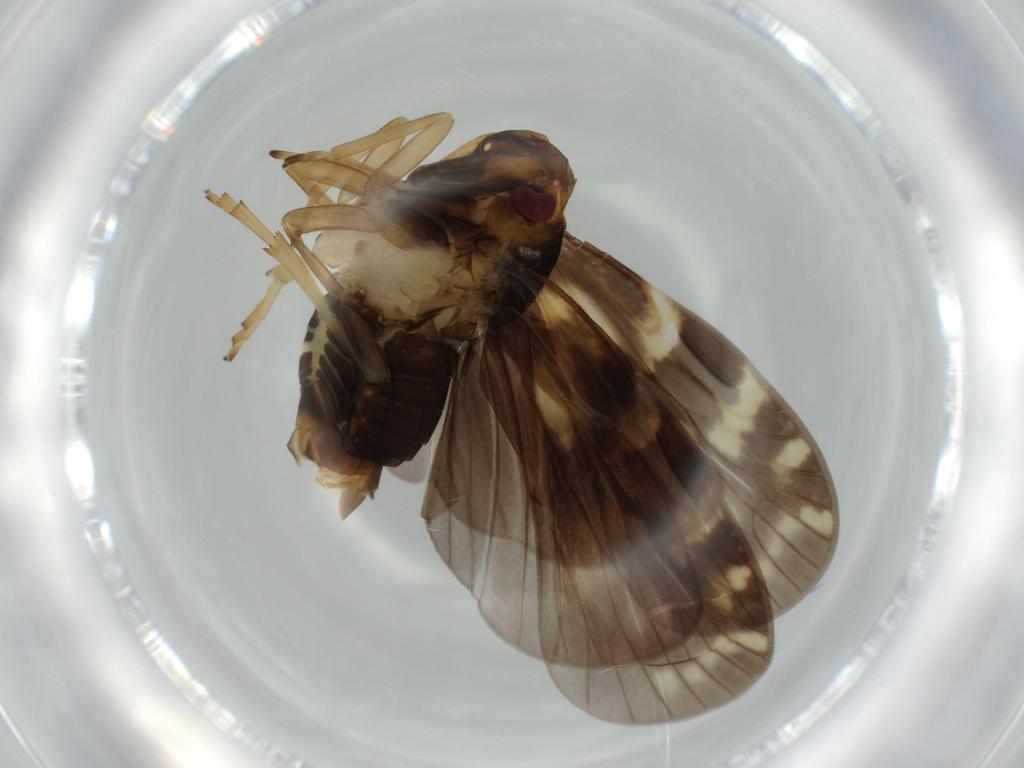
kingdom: Animalia
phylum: Arthropoda
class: Insecta
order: Hemiptera
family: Cixiidae
